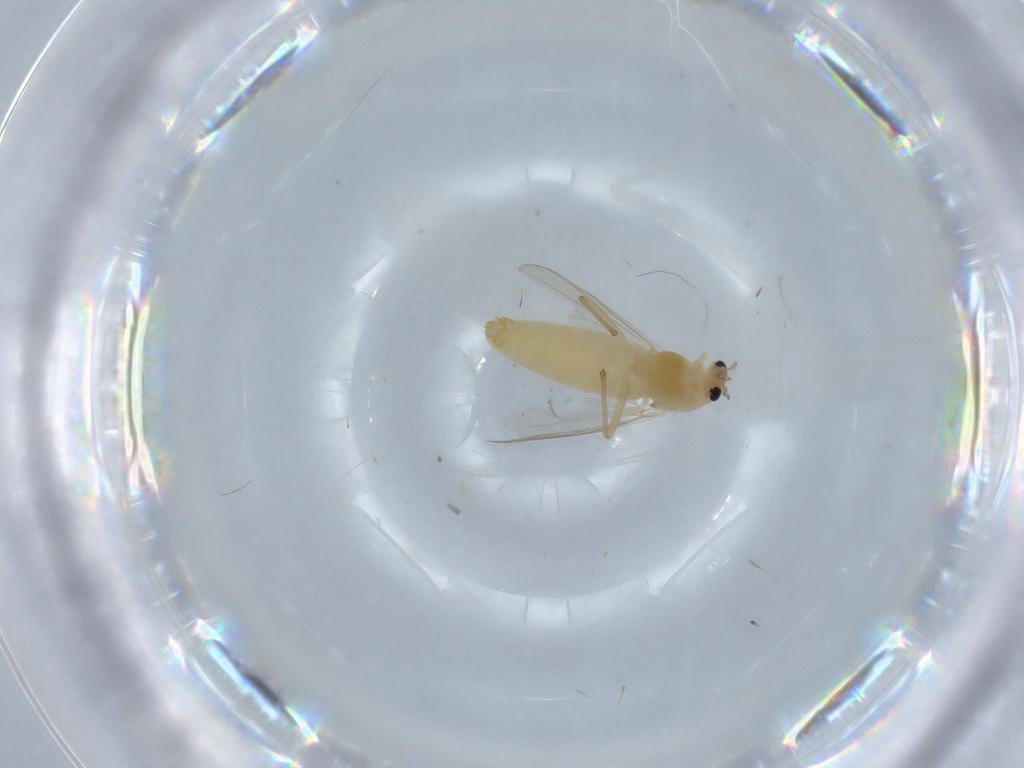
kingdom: Animalia
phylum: Arthropoda
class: Insecta
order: Diptera
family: Chironomidae
